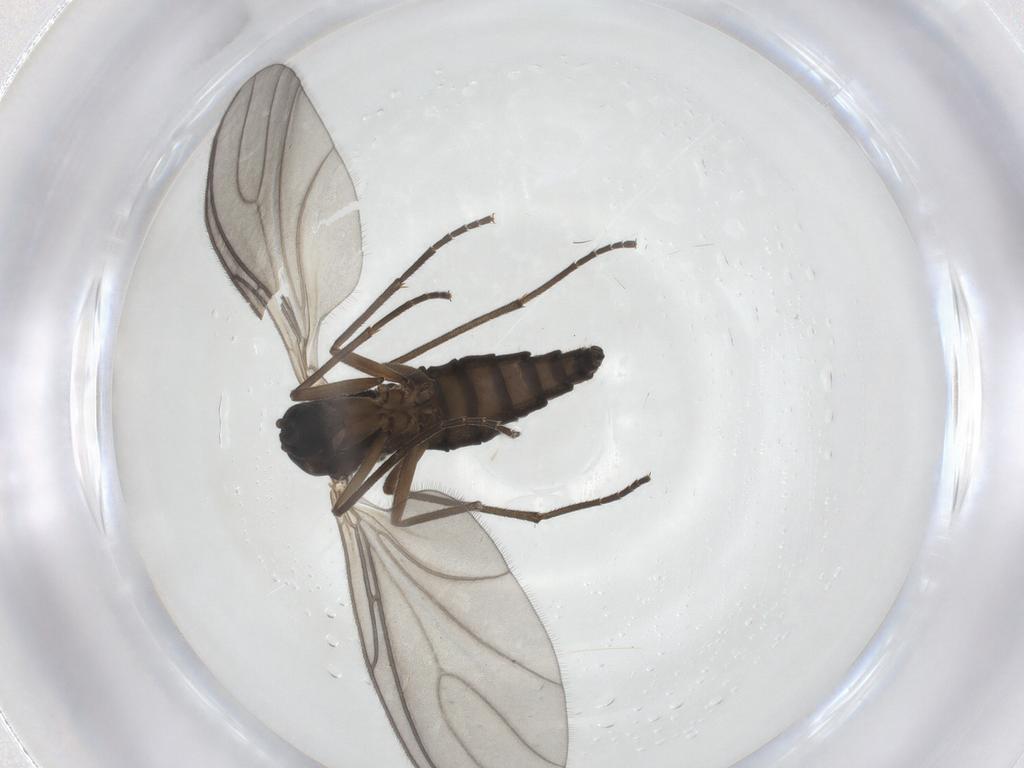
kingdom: Animalia
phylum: Arthropoda
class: Insecta
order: Diptera
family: Sciaridae
